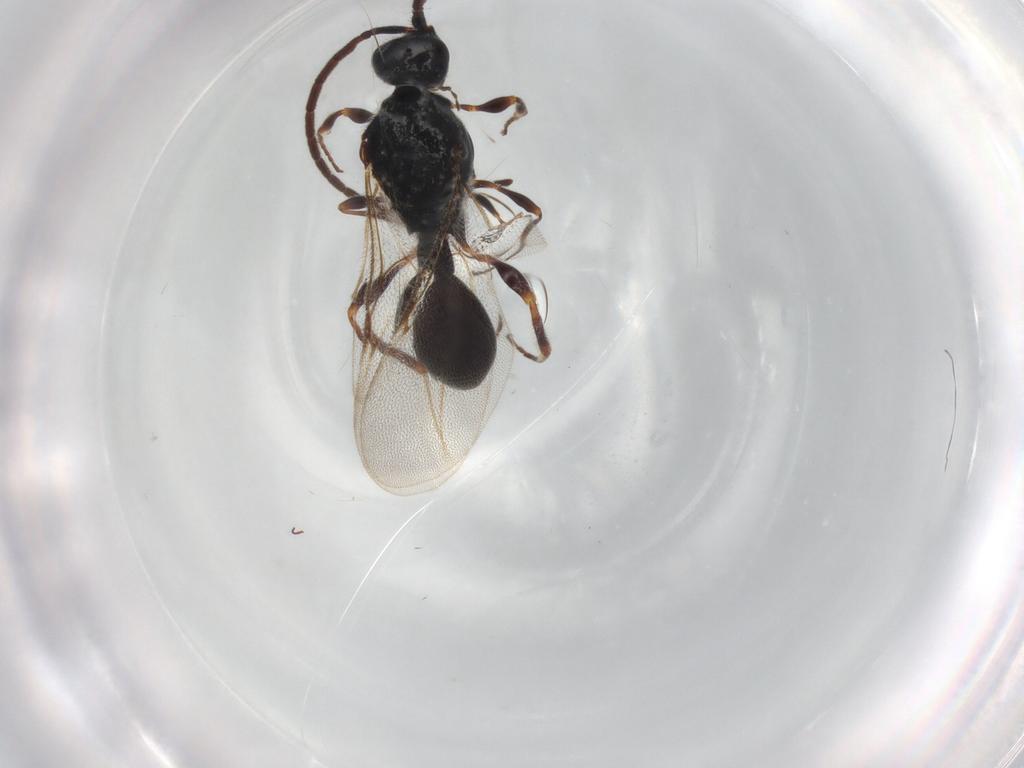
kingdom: Animalia
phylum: Arthropoda
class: Insecta
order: Hymenoptera
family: Diapriidae
